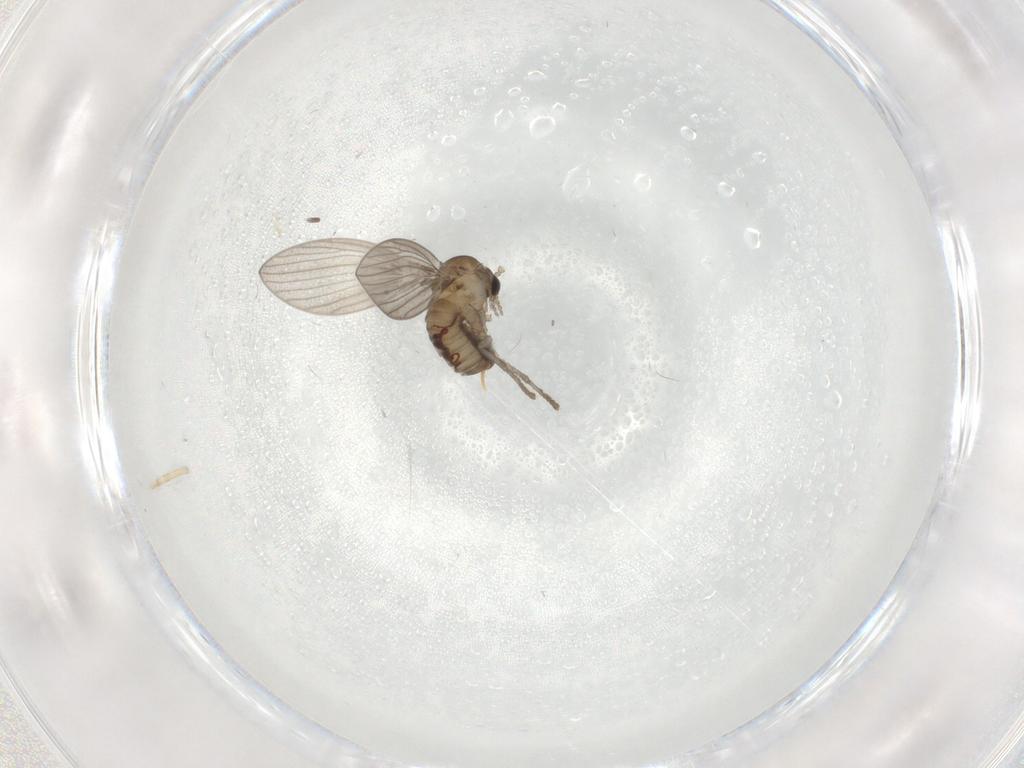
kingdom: Animalia
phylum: Arthropoda
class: Insecta
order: Diptera
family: Psychodidae
